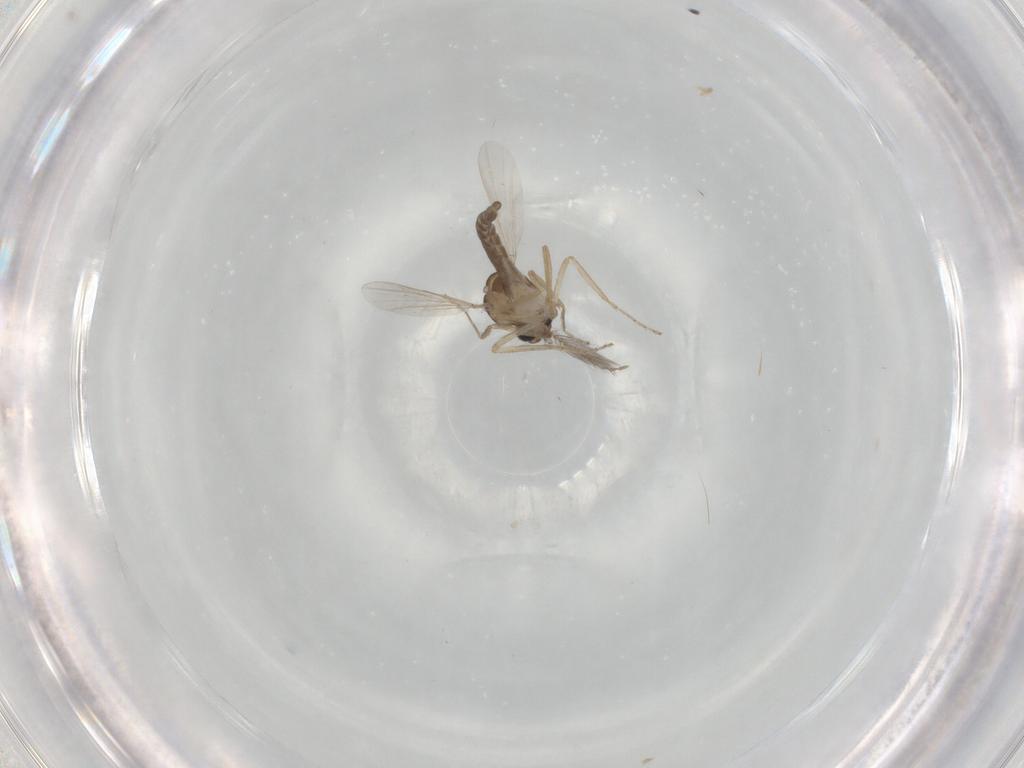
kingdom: Animalia
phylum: Arthropoda
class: Insecta
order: Diptera
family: Ceratopogonidae
